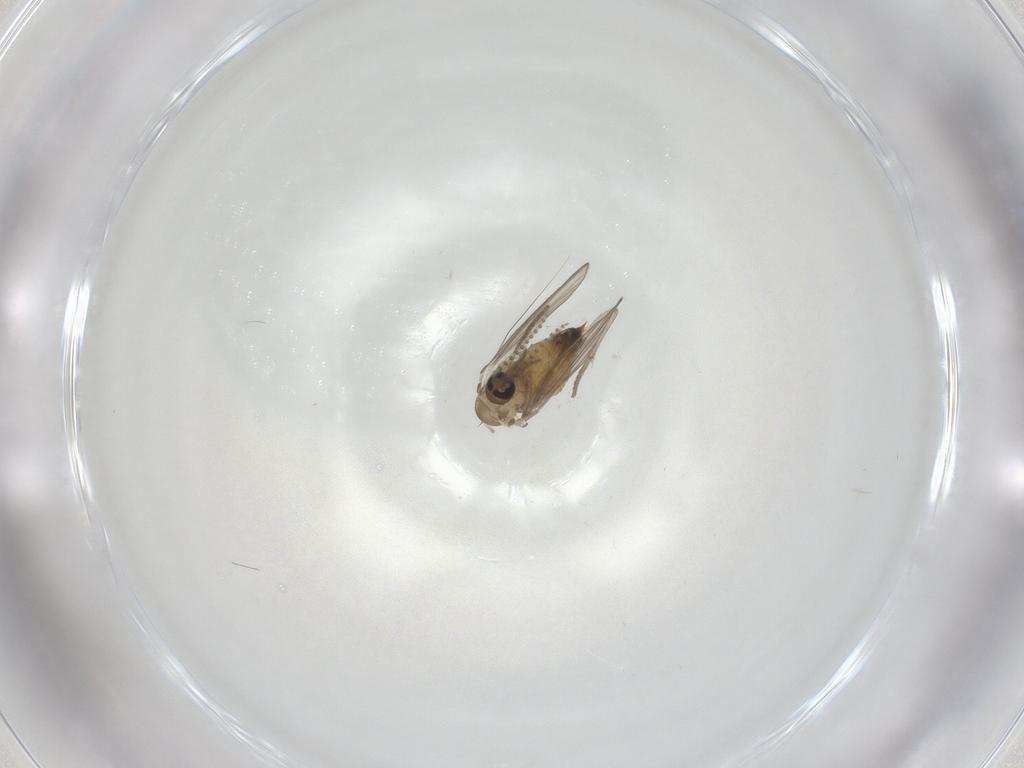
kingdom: Animalia
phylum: Arthropoda
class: Insecta
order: Diptera
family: Psychodidae
